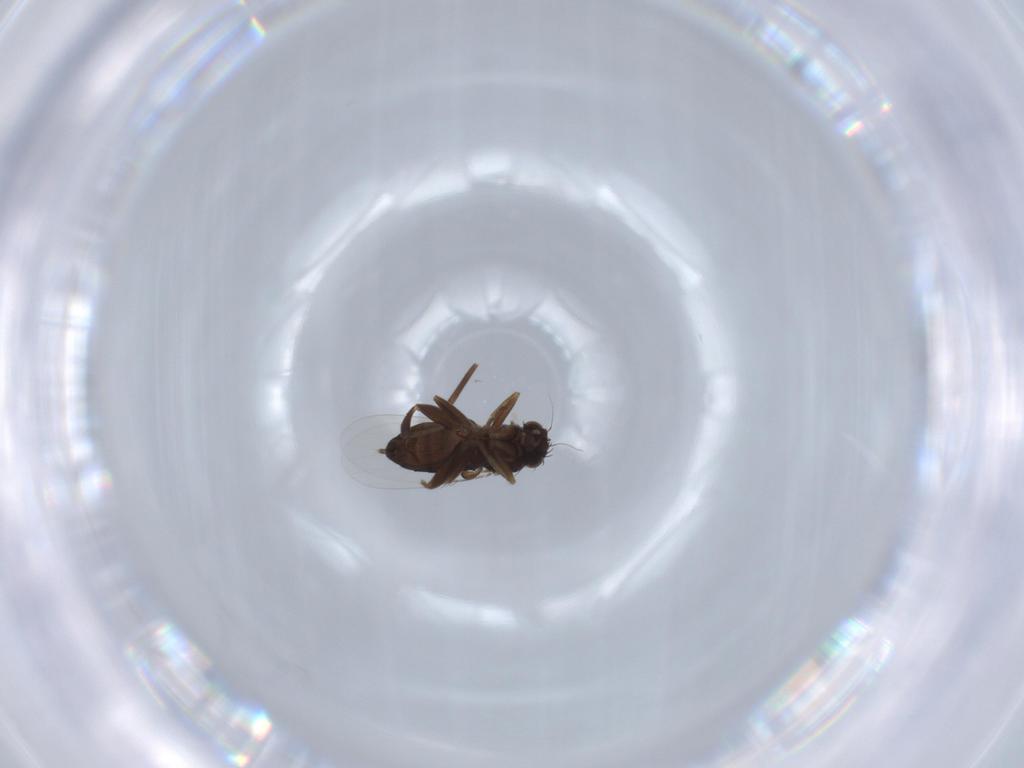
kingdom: Animalia
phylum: Arthropoda
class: Insecta
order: Diptera
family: Phoridae
